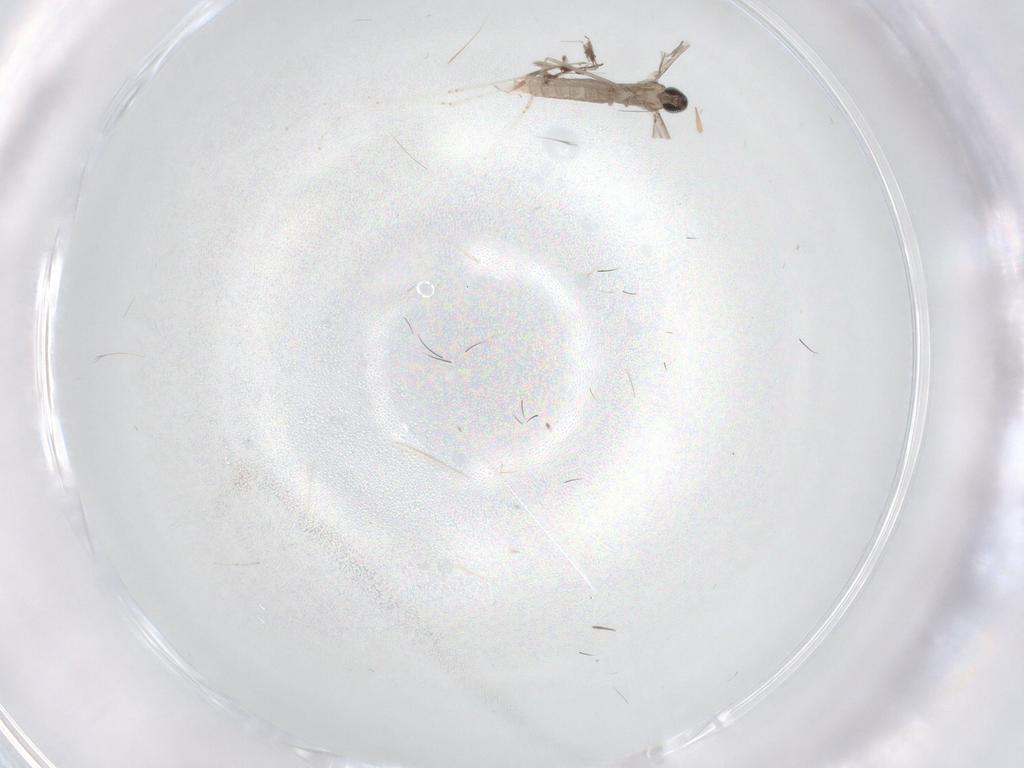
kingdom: Animalia
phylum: Arthropoda
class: Insecta
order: Diptera
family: Phoridae
